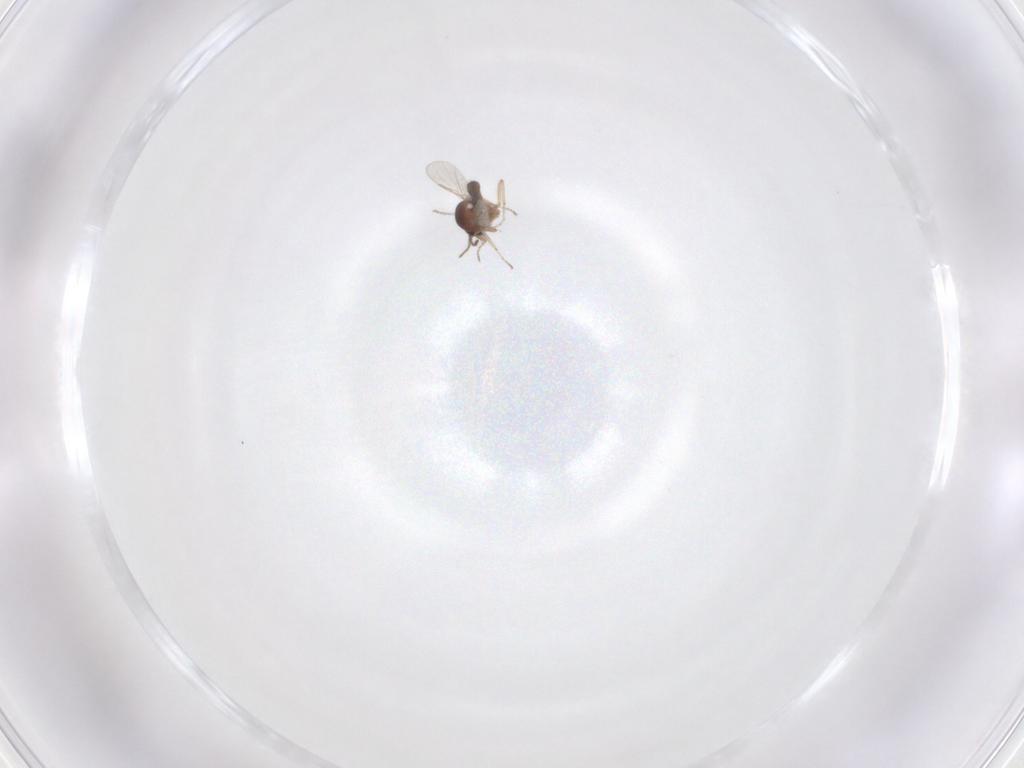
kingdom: Animalia
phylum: Arthropoda
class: Insecta
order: Diptera
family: Ceratopogonidae
